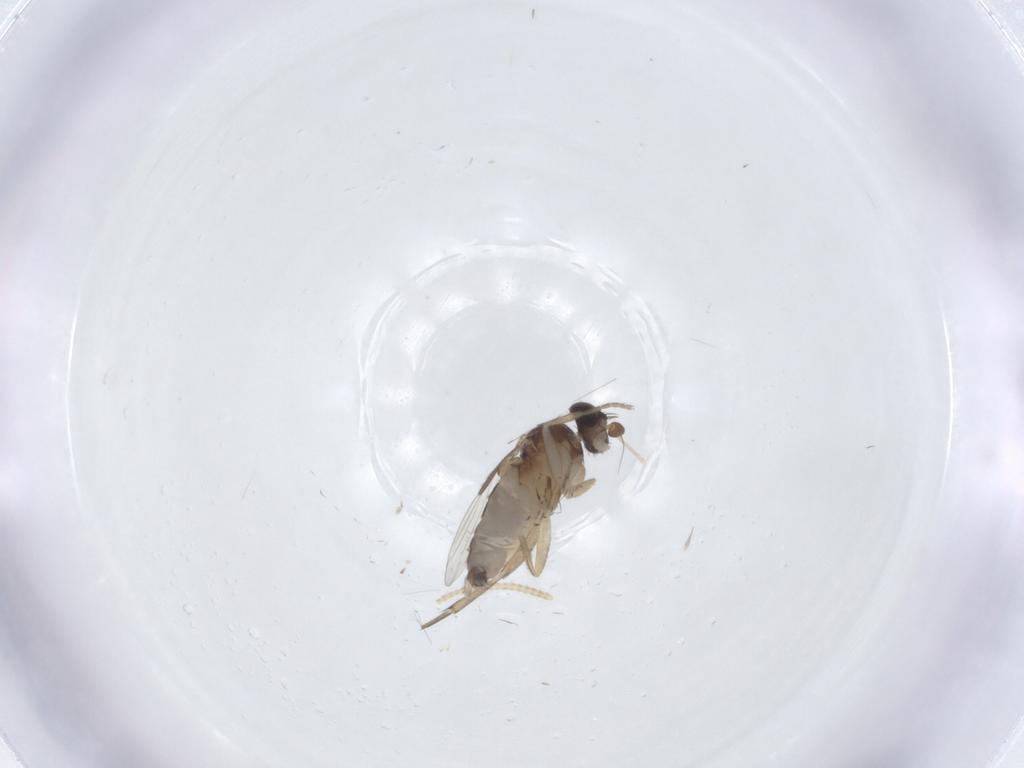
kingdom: Animalia
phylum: Arthropoda
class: Insecta
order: Diptera
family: Phoridae
